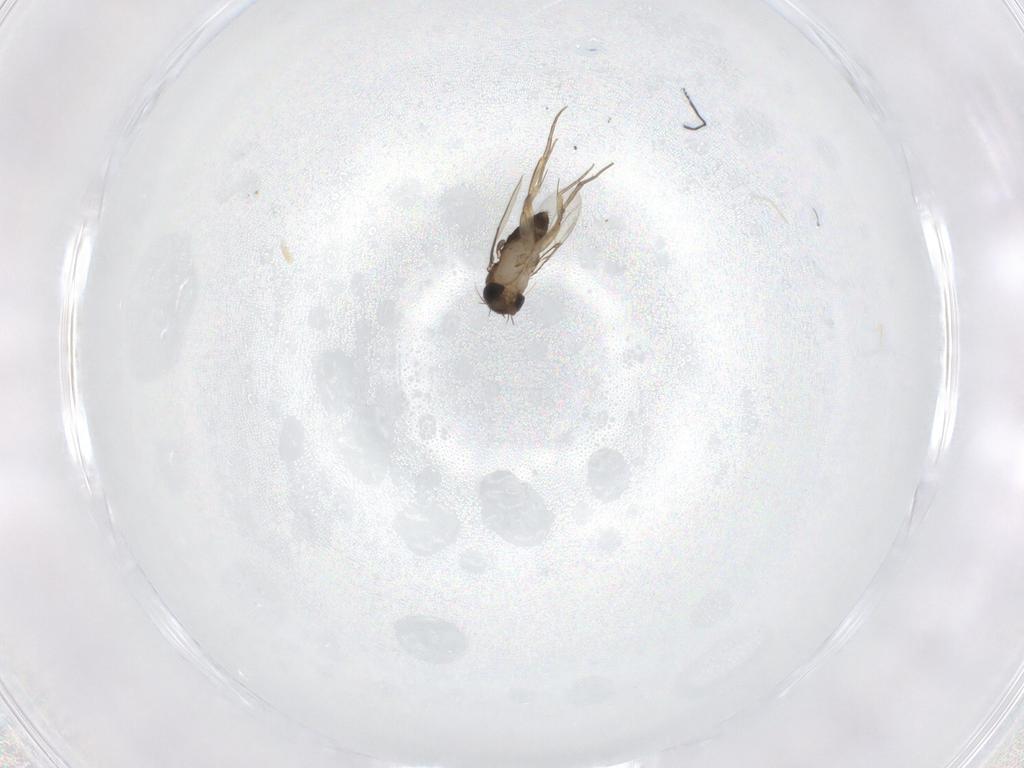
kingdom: Animalia
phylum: Arthropoda
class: Insecta
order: Diptera
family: Phoridae
